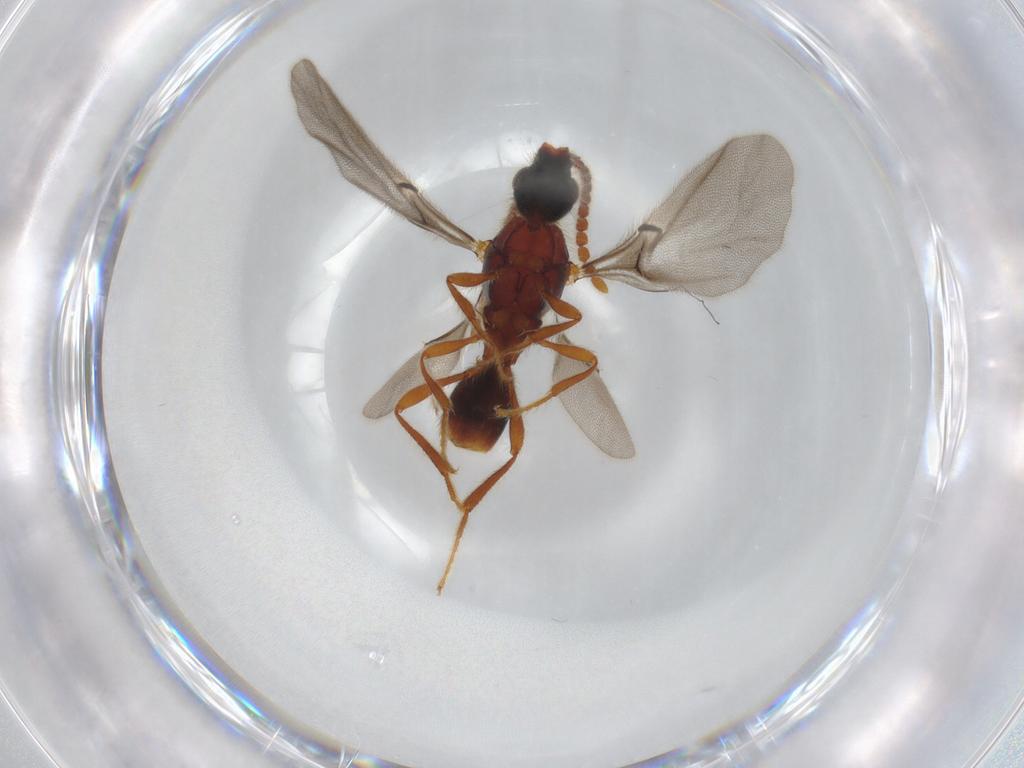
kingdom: Animalia
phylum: Arthropoda
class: Insecta
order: Hymenoptera
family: Diapriidae
